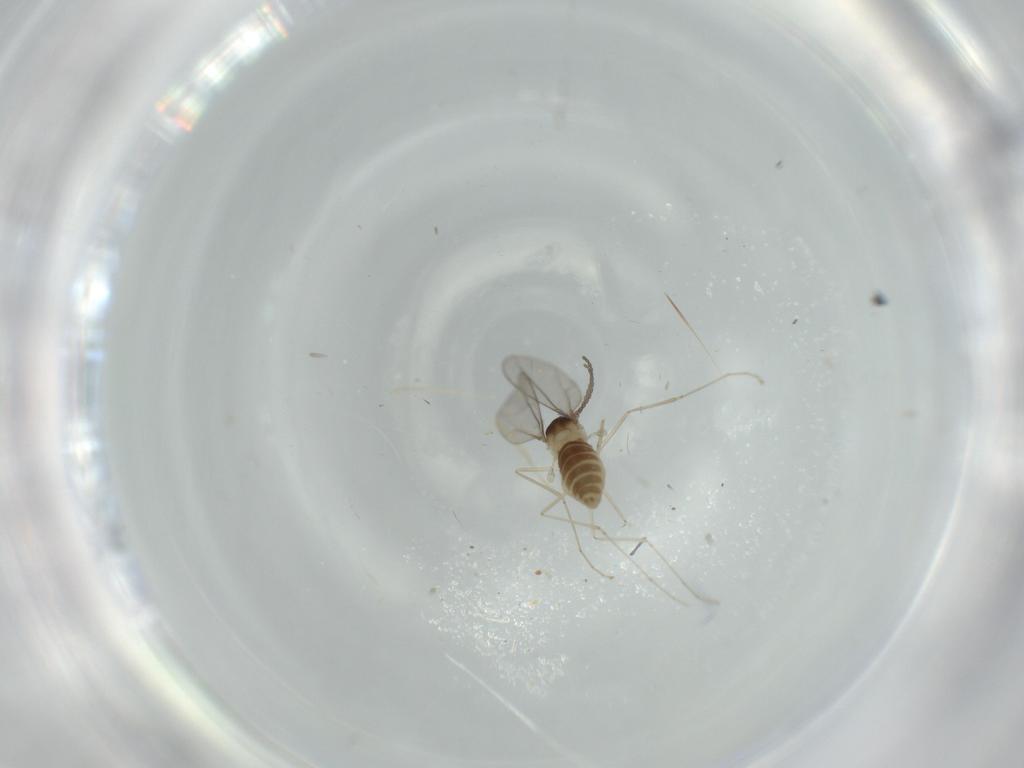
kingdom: Animalia
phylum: Arthropoda
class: Insecta
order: Diptera
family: Cecidomyiidae
